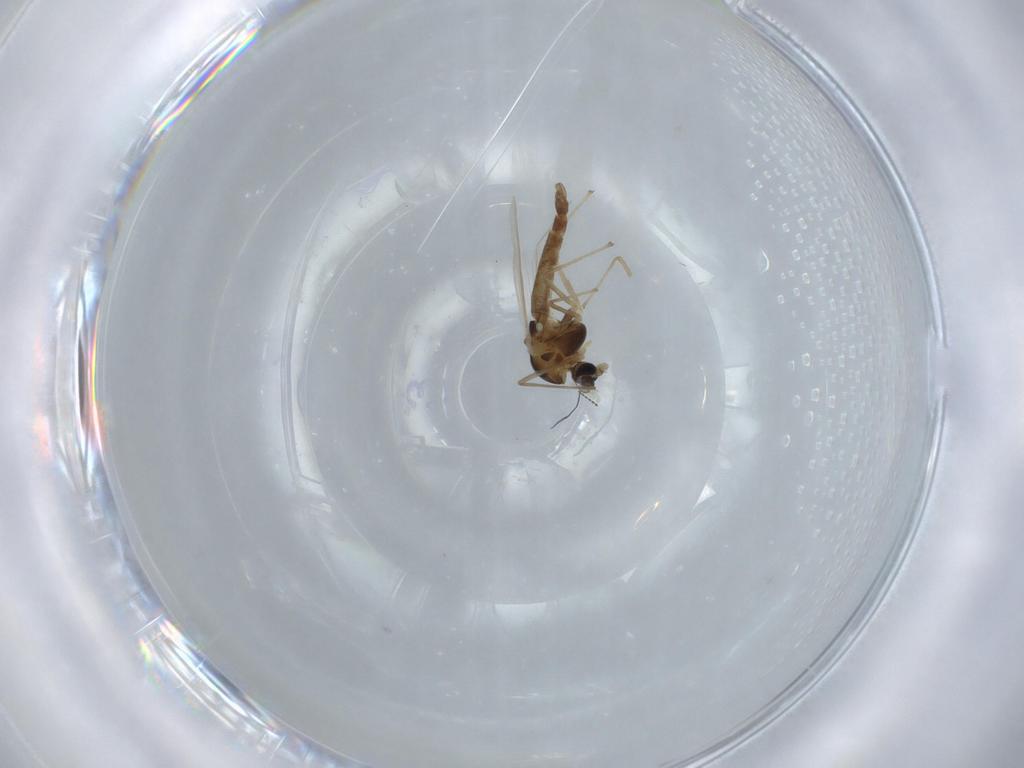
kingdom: Animalia
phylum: Arthropoda
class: Insecta
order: Diptera
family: Chironomidae
